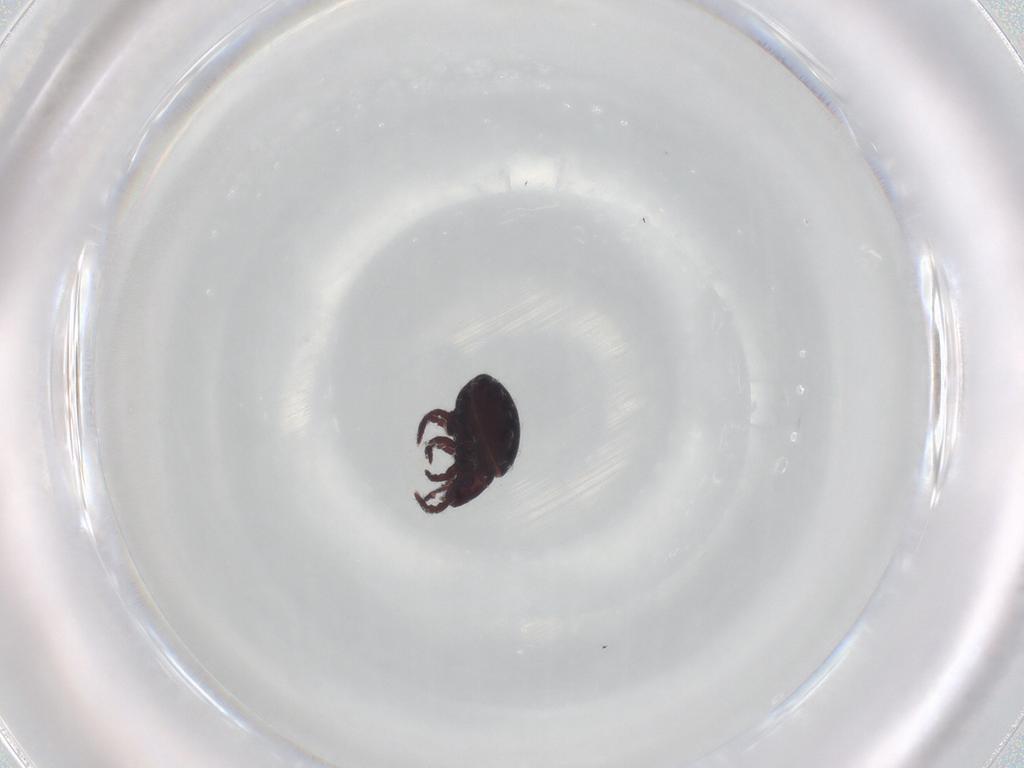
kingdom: Animalia
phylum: Arthropoda
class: Arachnida
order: Sarcoptiformes
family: Hermanniidae
